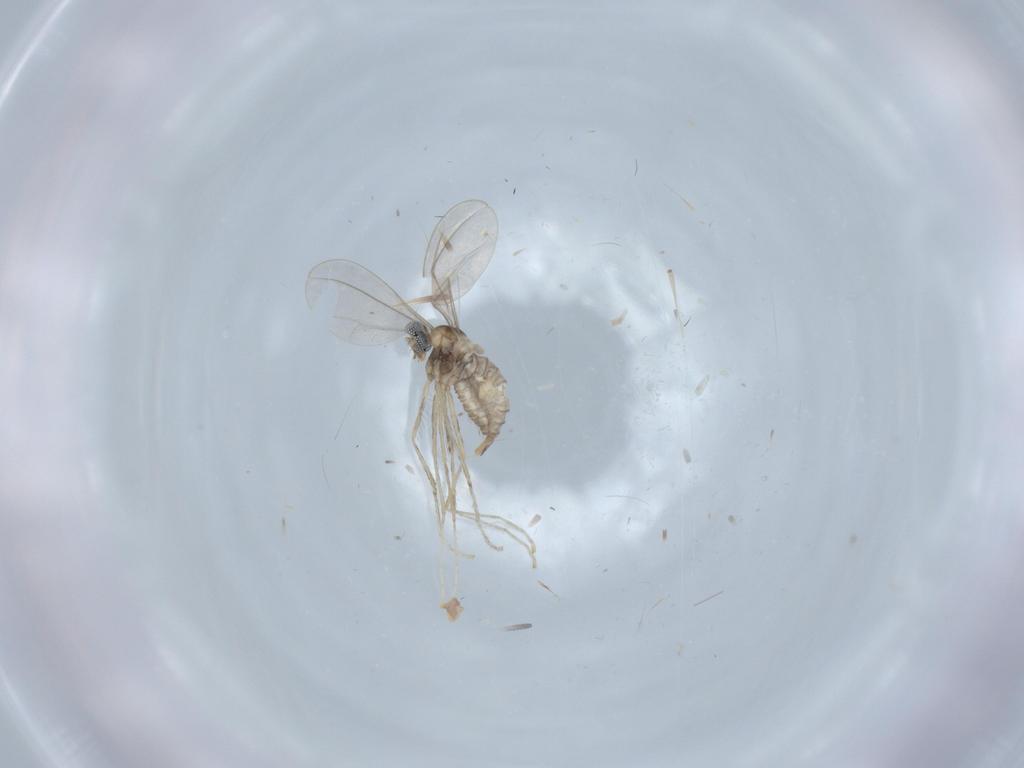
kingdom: Animalia
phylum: Arthropoda
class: Insecta
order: Diptera
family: Cecidomyiidae
